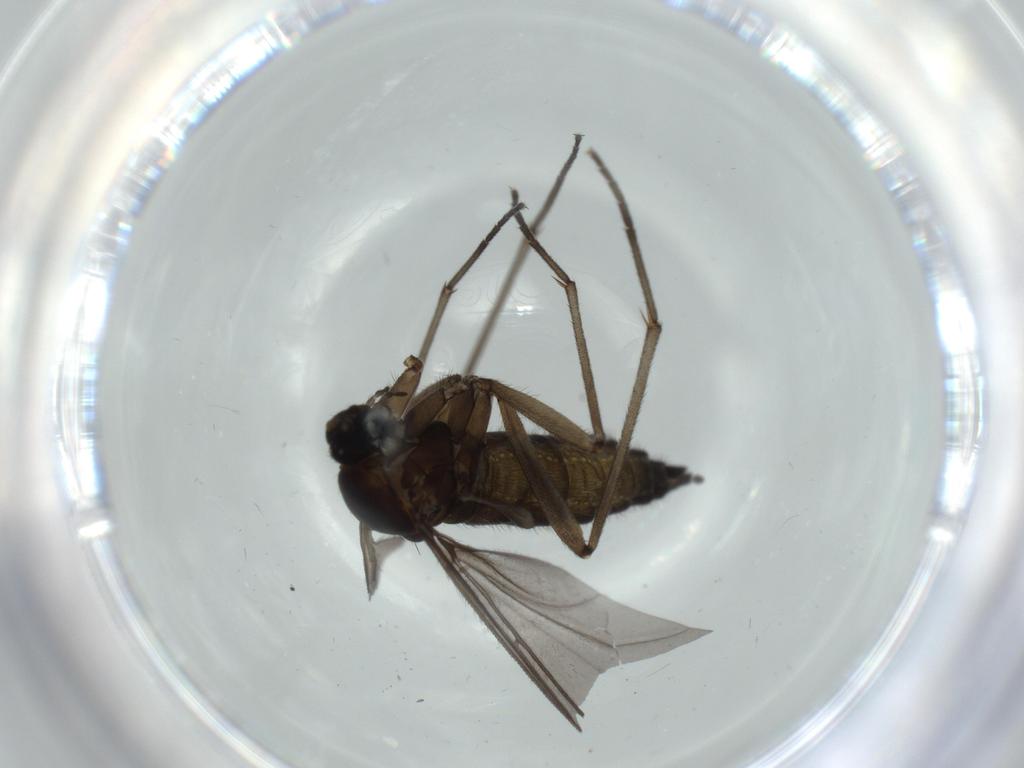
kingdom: Animalia
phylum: Arthropoda
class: Insecta
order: Diptera
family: Sciaridae
